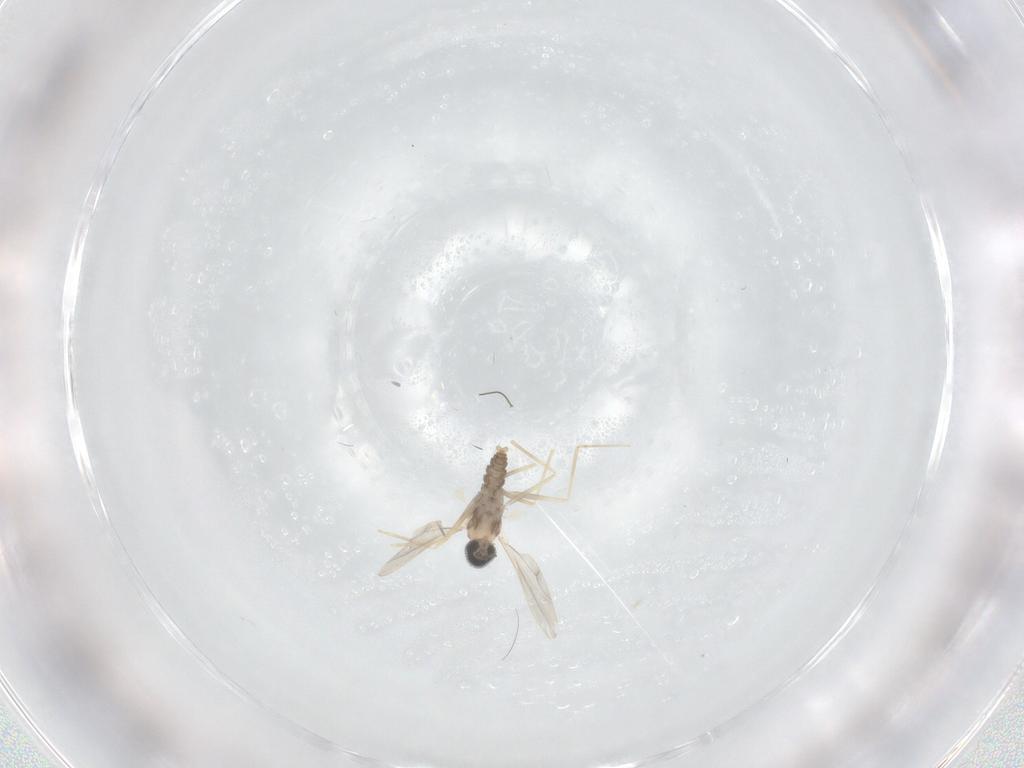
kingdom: Animalia
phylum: Arthropoda
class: Insecta
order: Diptera
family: Cecidomyiidae
